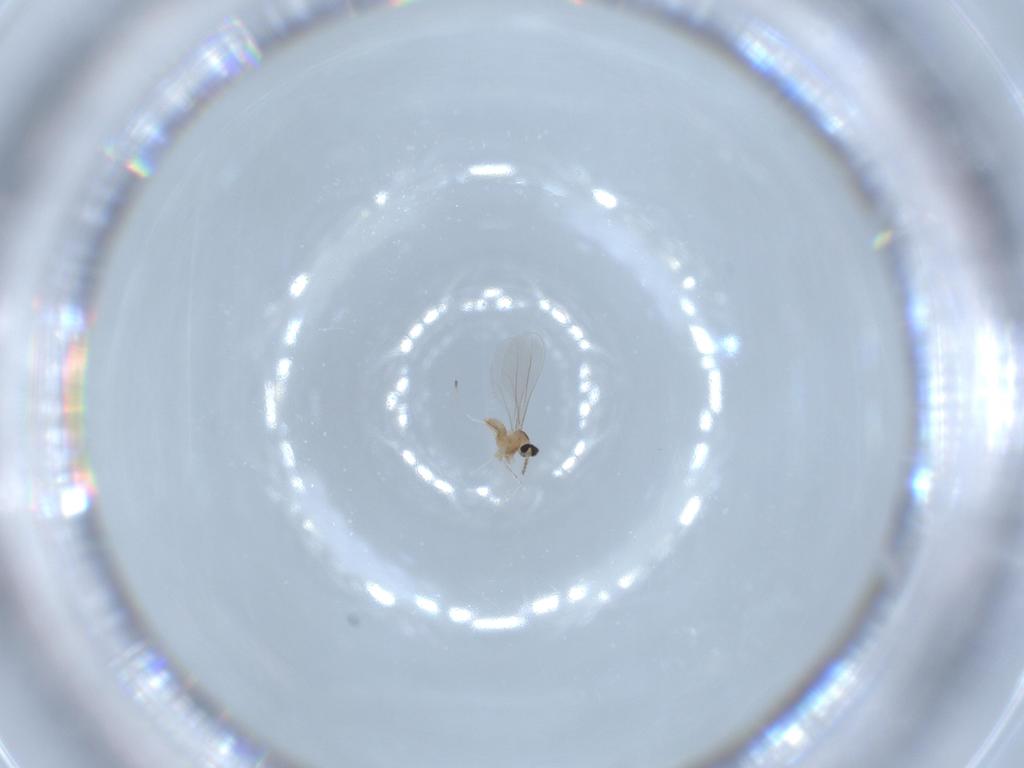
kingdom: Animalia
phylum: Arthropoda
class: Insecta
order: Diptera
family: Cecidomyiidae
